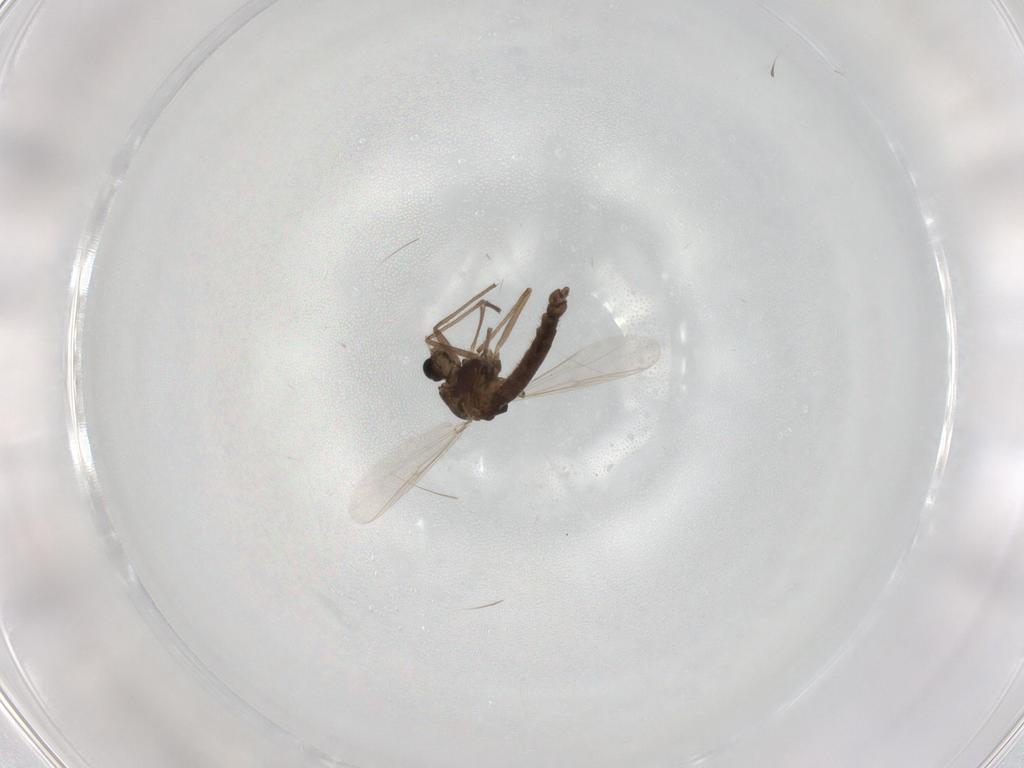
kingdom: Animalia
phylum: Arthropoda
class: Insecta
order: Diptera
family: Chironomidae
